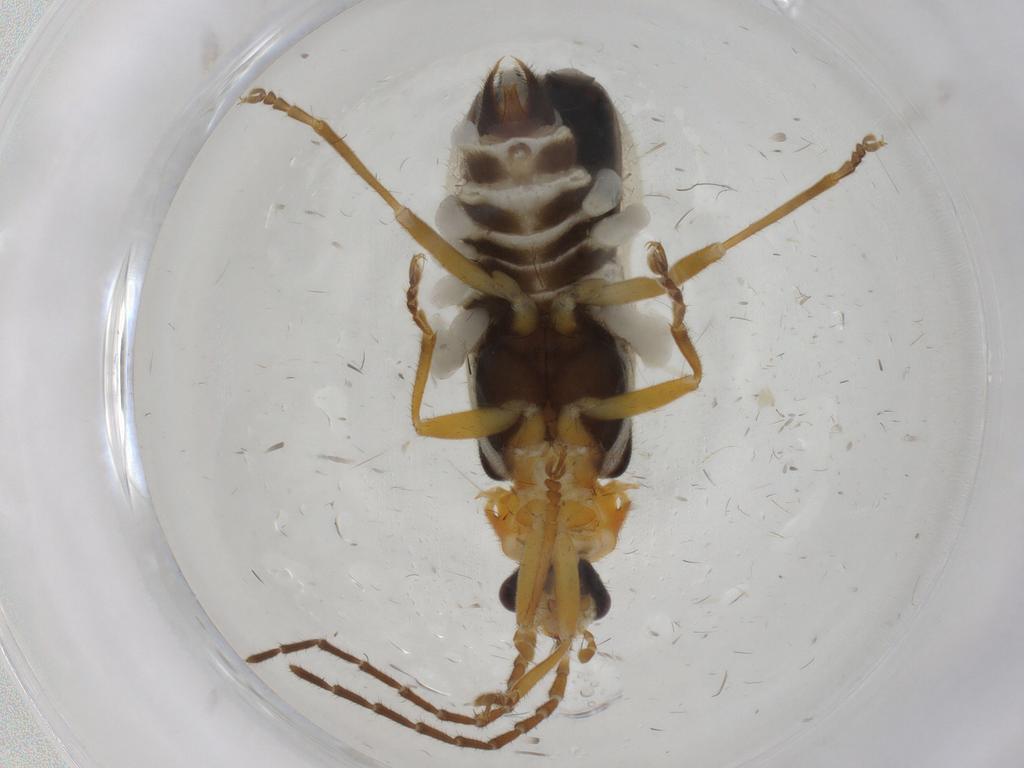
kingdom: Animalia
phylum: Arthropoda
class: Insecta
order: Coleoptera
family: Cantharidae
